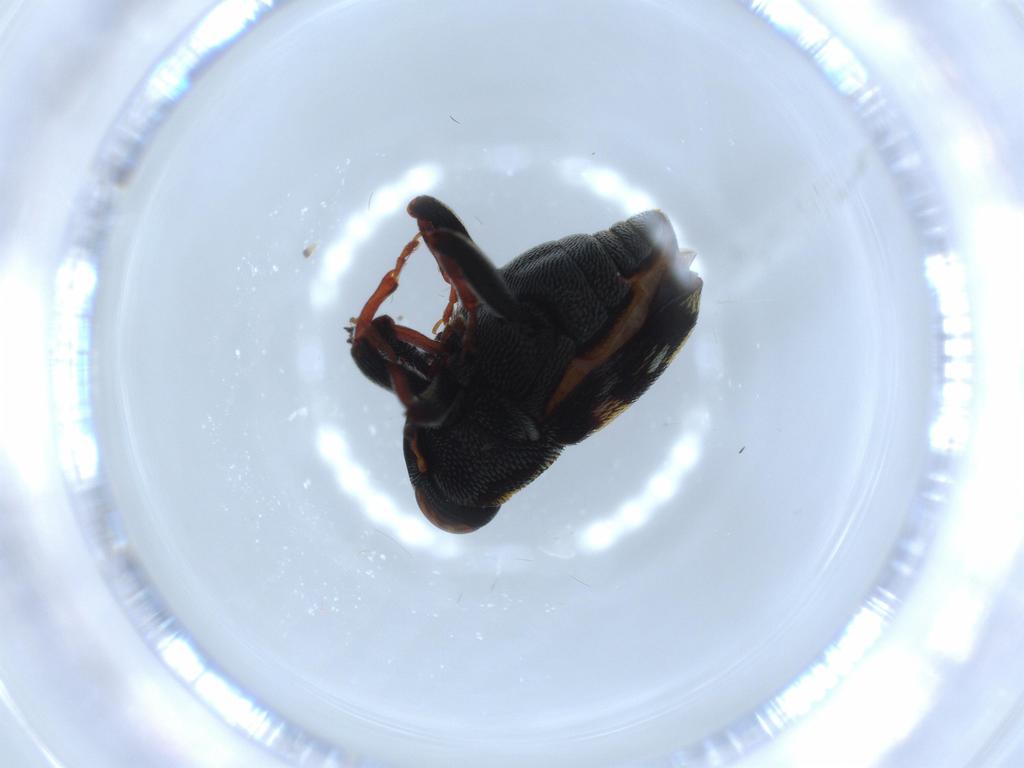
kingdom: Animalia
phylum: Arthropoda
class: Insecta
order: Coleoptera
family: Curculionidae
